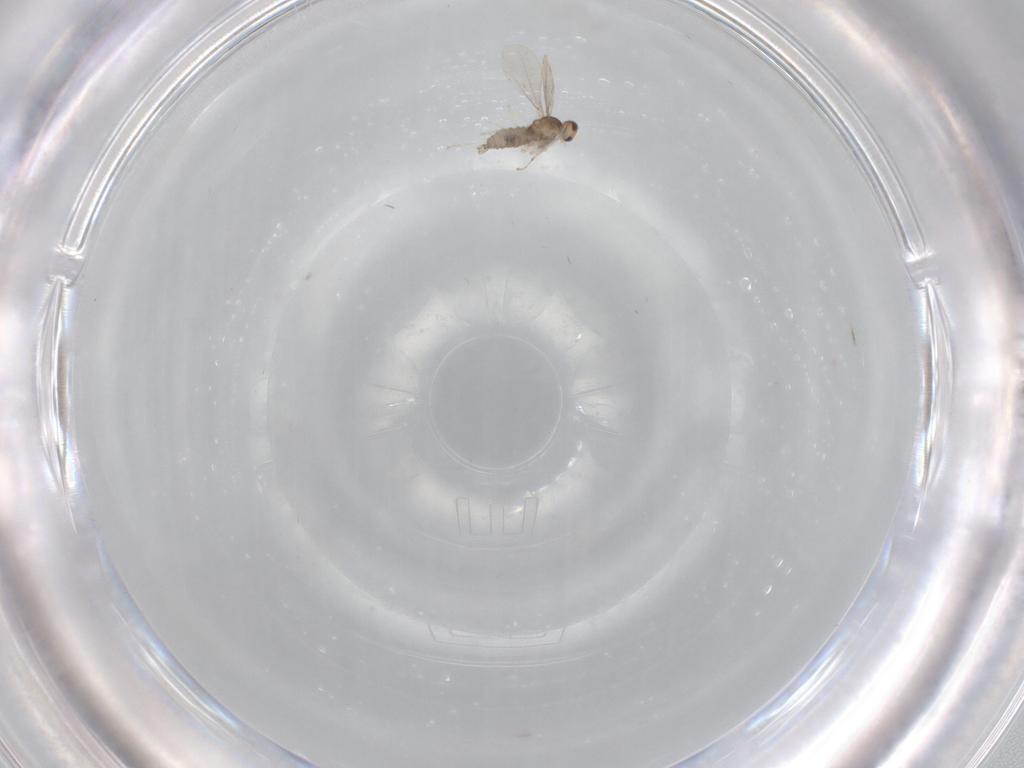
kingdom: Animalia
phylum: Arthropoda
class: Insecta
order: Diptera
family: Cecidomyiidae
